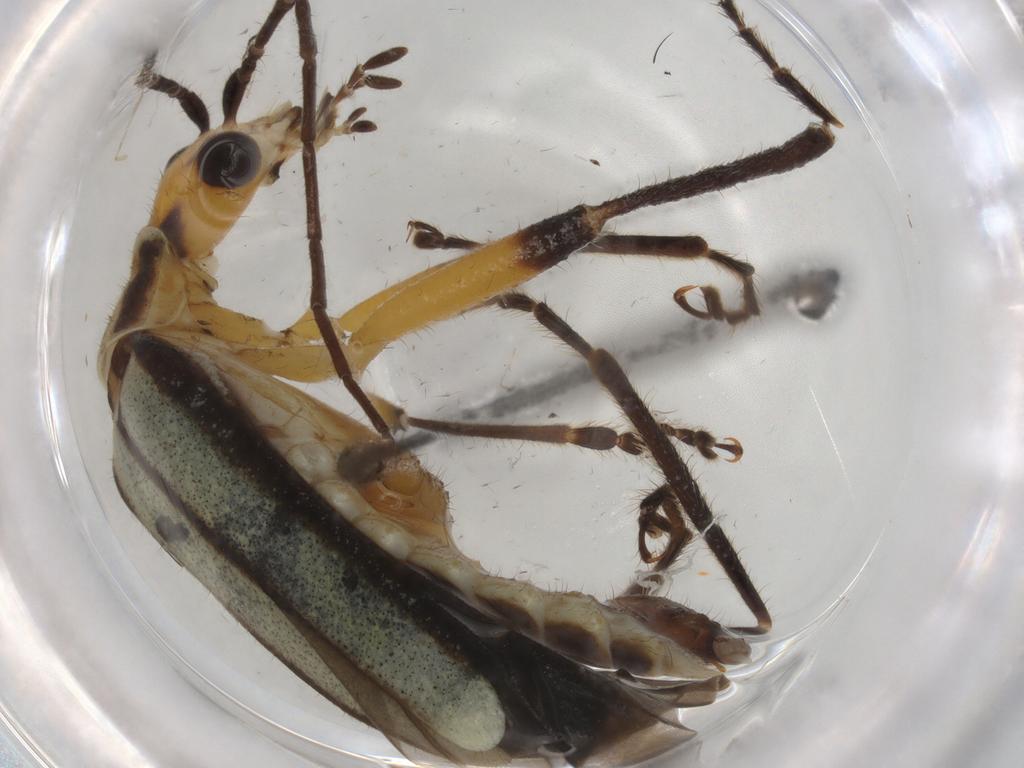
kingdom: Animalia
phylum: Arthropoda
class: Insecta
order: Coleoptera
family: Cantharidae
